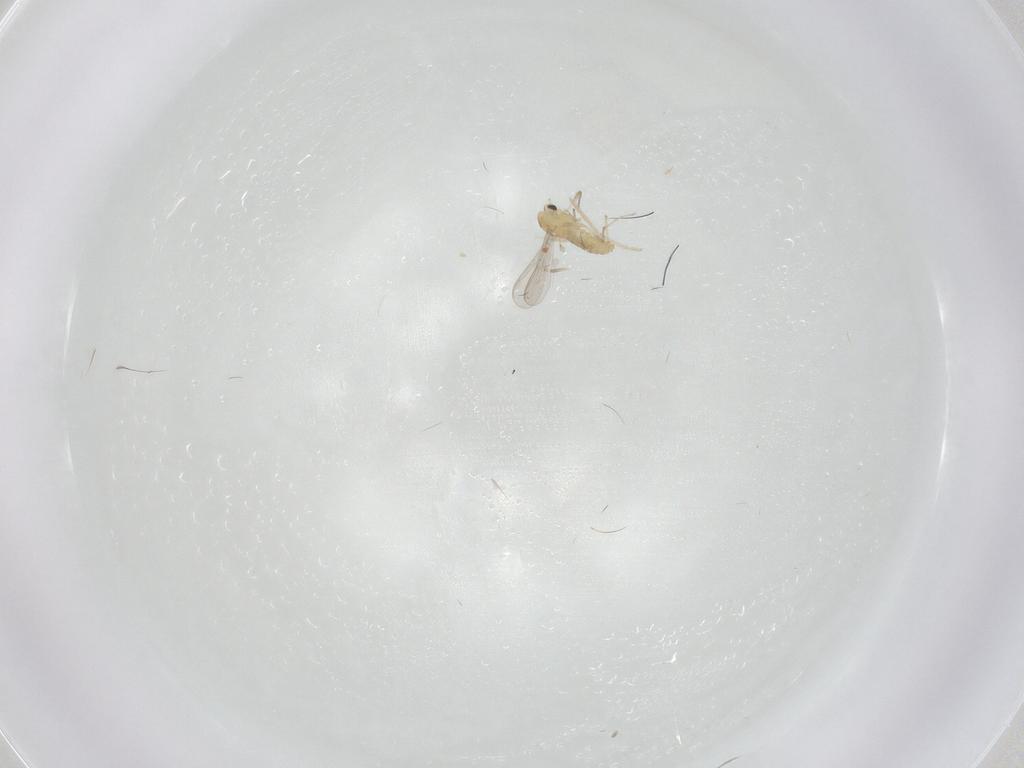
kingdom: Animalia
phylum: Arthropoda
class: Insecta
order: Diptera
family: Chironomidae
